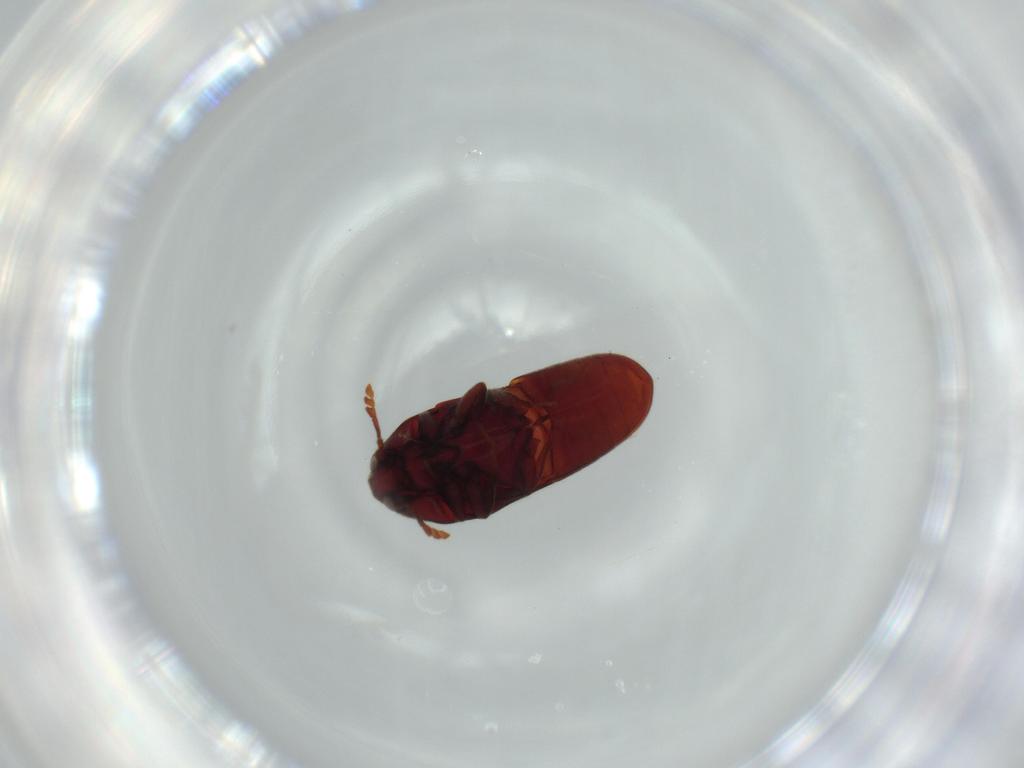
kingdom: Animalia
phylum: Arthropoda
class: Insecta
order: Coleoptera
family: Throscidae
